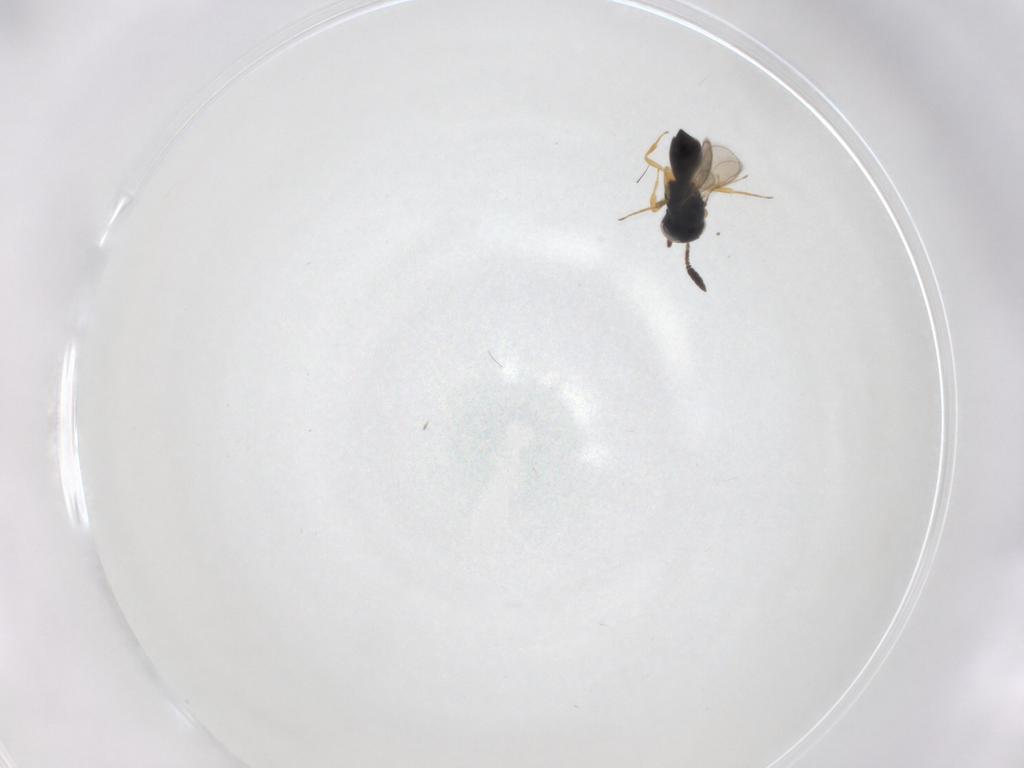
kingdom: Animalia
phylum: Arthropoda
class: Insecta
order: Hymenoptera
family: Scelionidae
